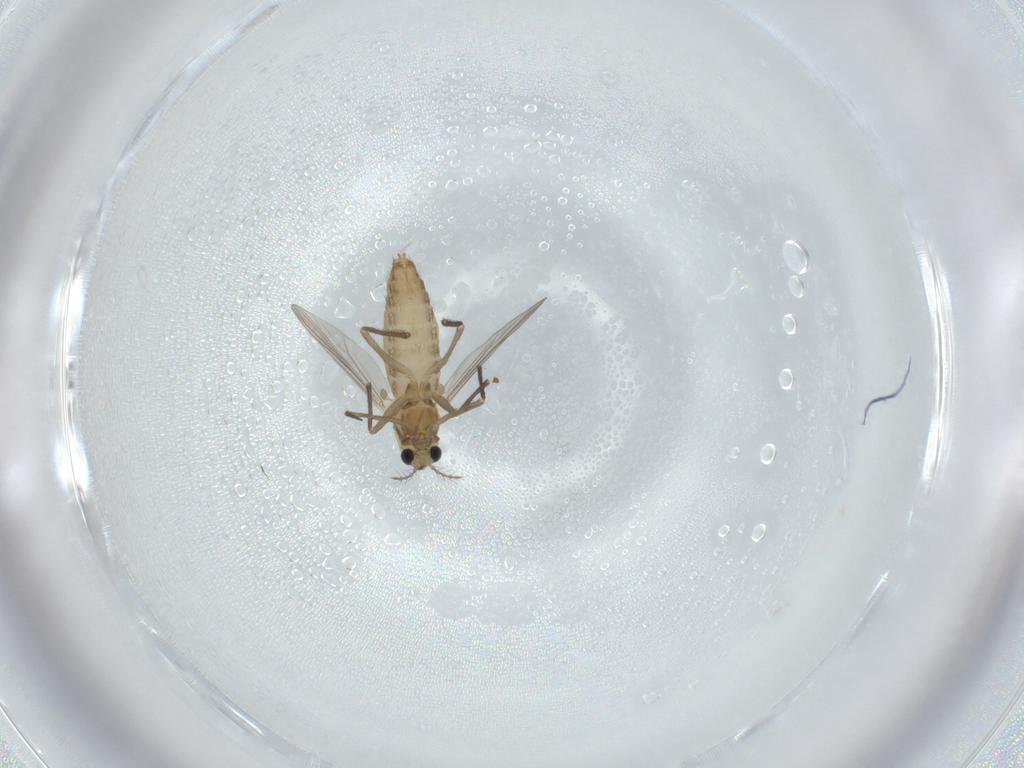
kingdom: Animalia
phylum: Arthropoda
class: Insecta
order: Diptera
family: Chironomidae
